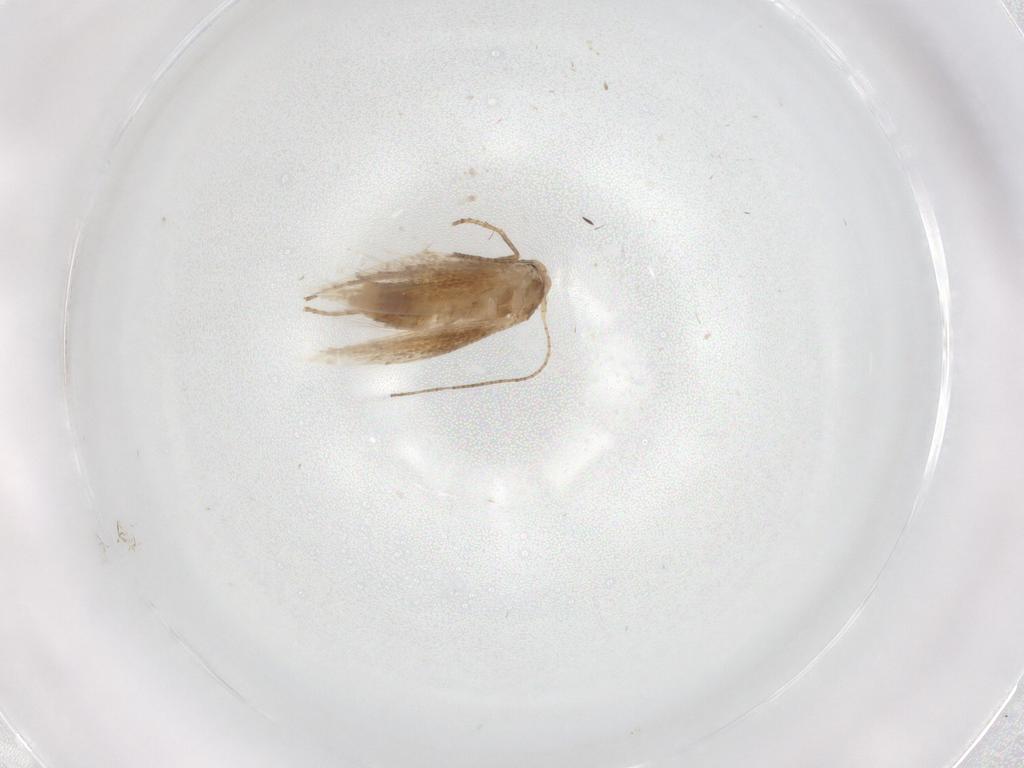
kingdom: Animalia
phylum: Arthropoda
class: Insecta
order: Lepidoptera
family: Bucculatricidae
